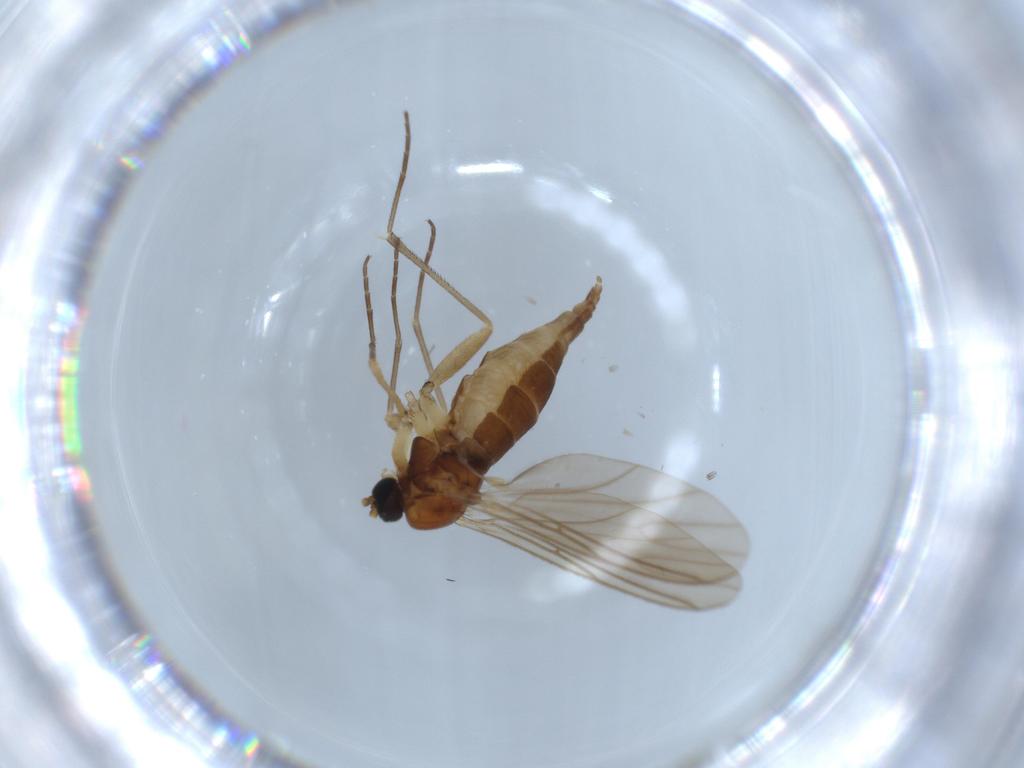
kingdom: Animalia
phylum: Arthropoda
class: Insecta
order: Diptera
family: Sciaridae
